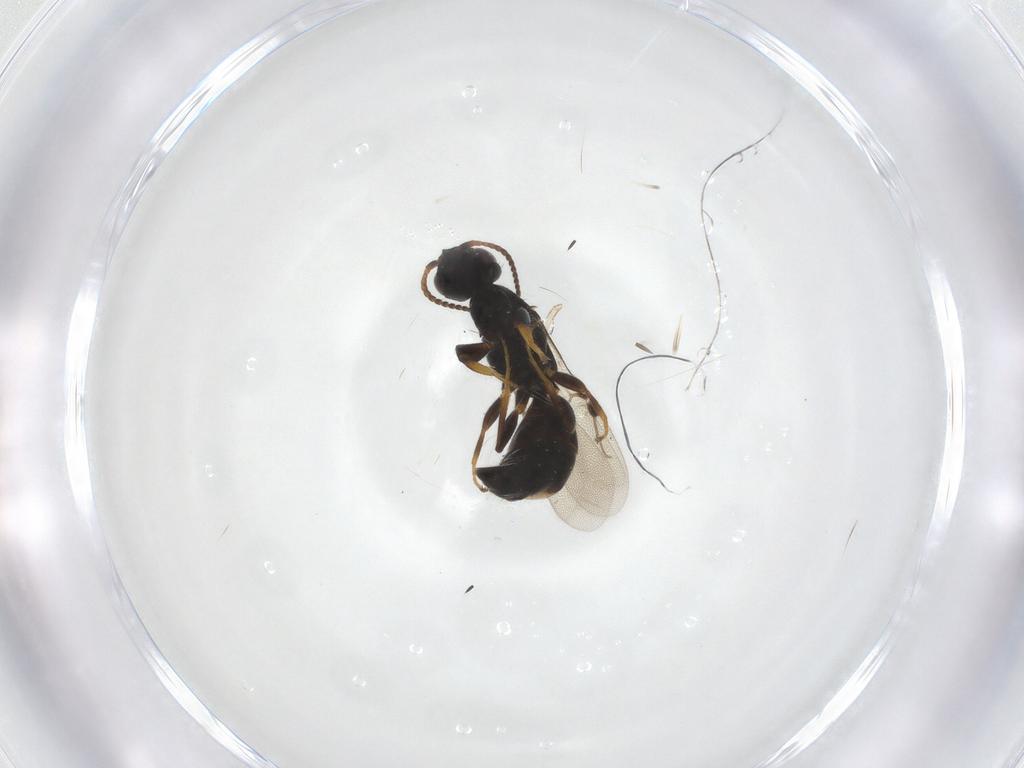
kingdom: Animalia
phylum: Arthropoda
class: Insecta
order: Hymenoptera
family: Bethylidae
